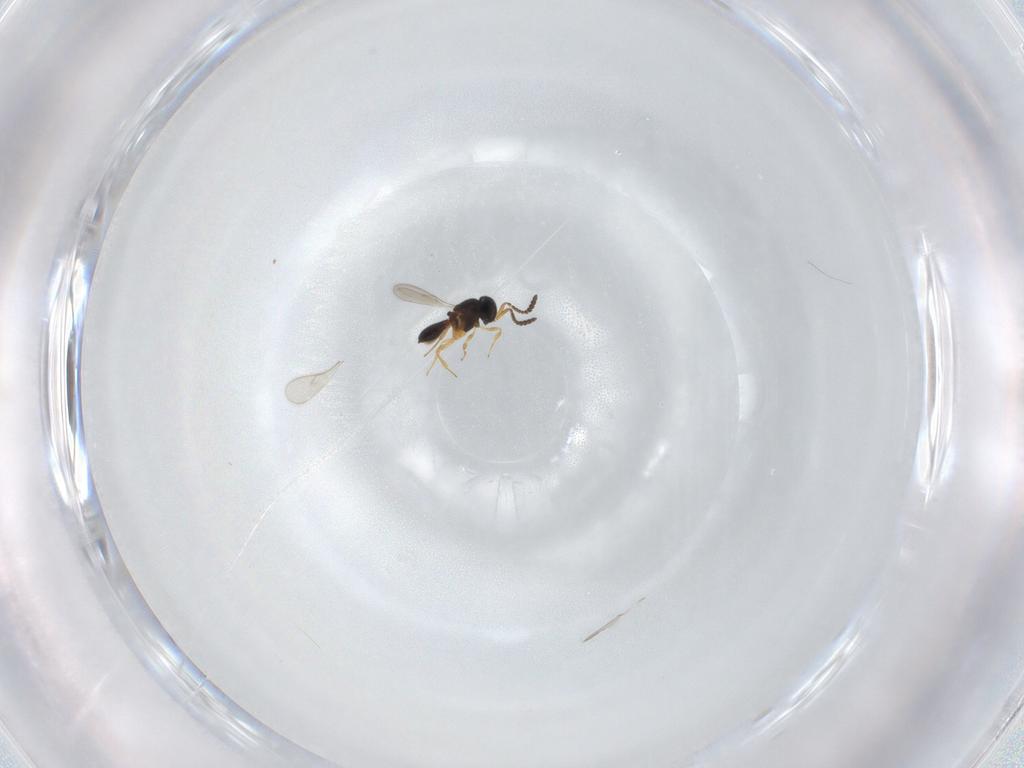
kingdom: Animalia
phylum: Arthropoda
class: Insecta
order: Hymenoptera
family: Scelionidae
